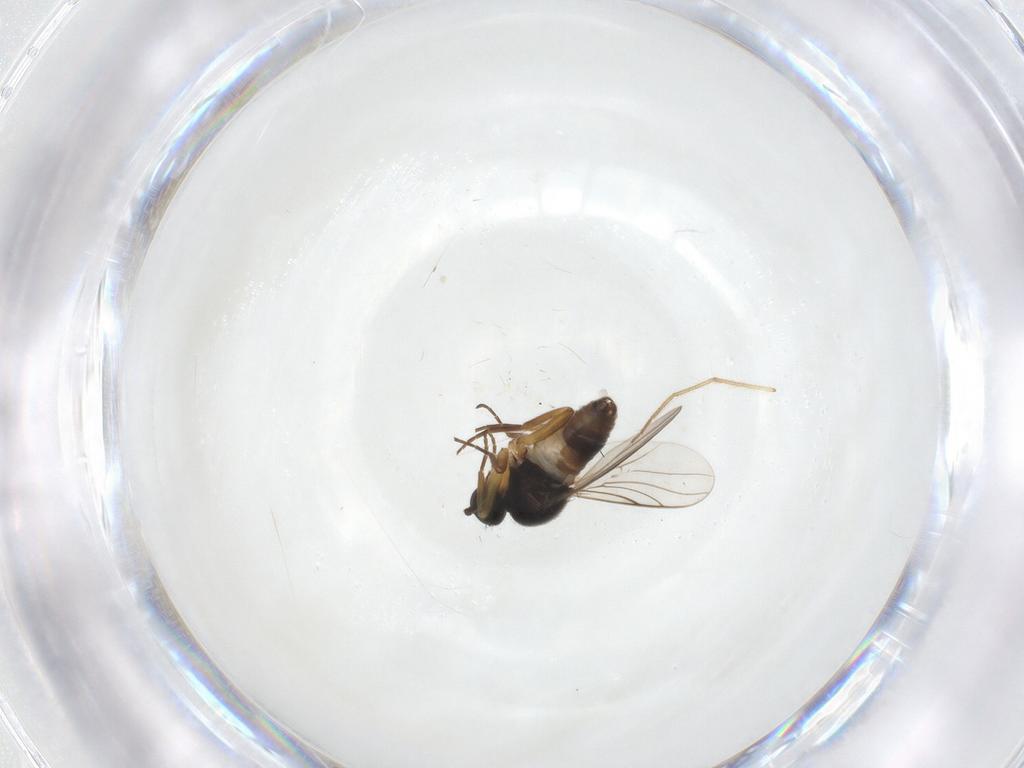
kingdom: Animalia
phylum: Arthropoda
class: Insecta
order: Diptera
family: Hybotidae
